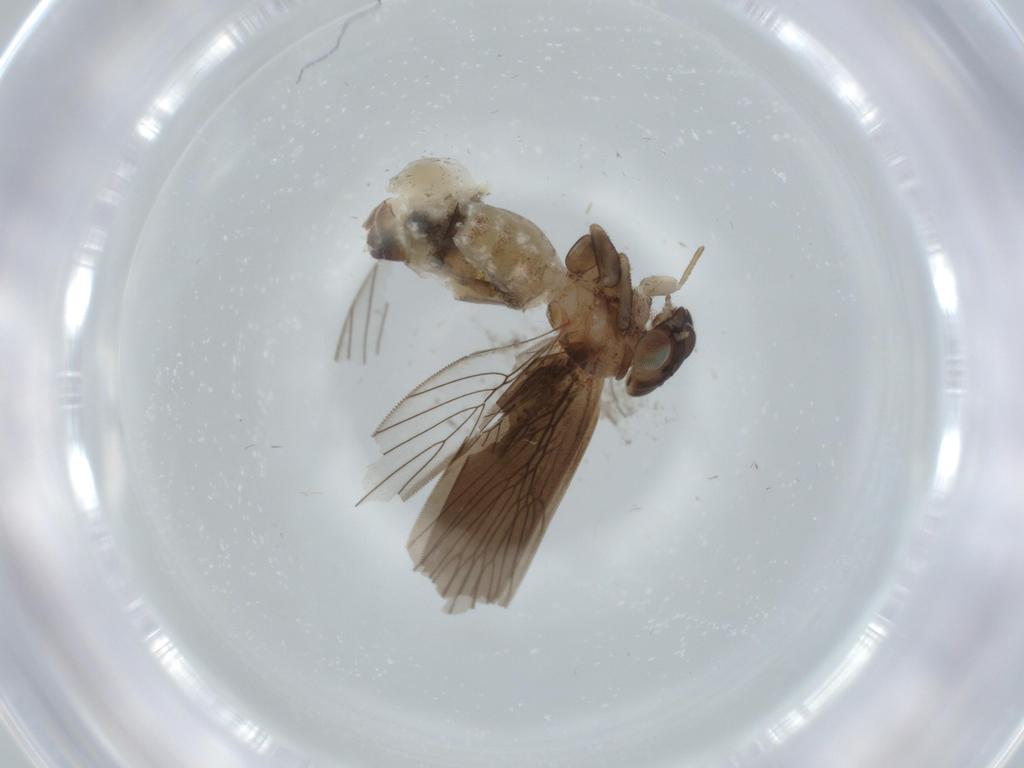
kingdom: Animalia
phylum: Arthropoda
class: Insecta
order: Psocodea
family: Lepidopsocidae
